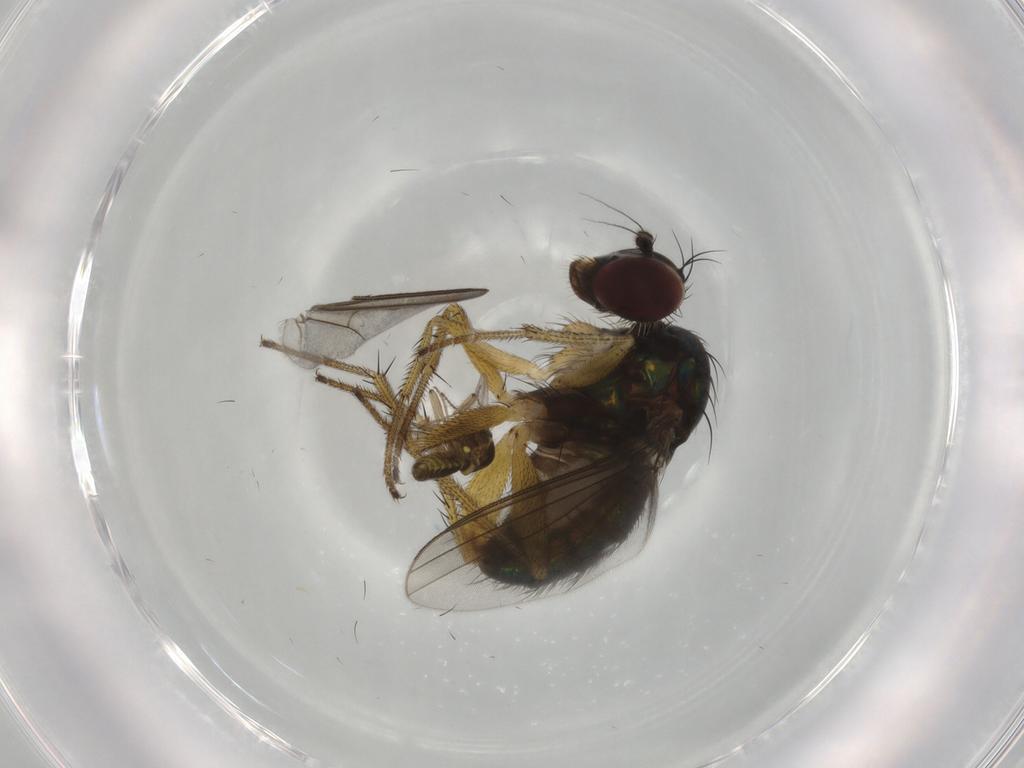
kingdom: Animalia
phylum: Arthropoda
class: Insecta
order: Diptera
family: Dolichopodidae
